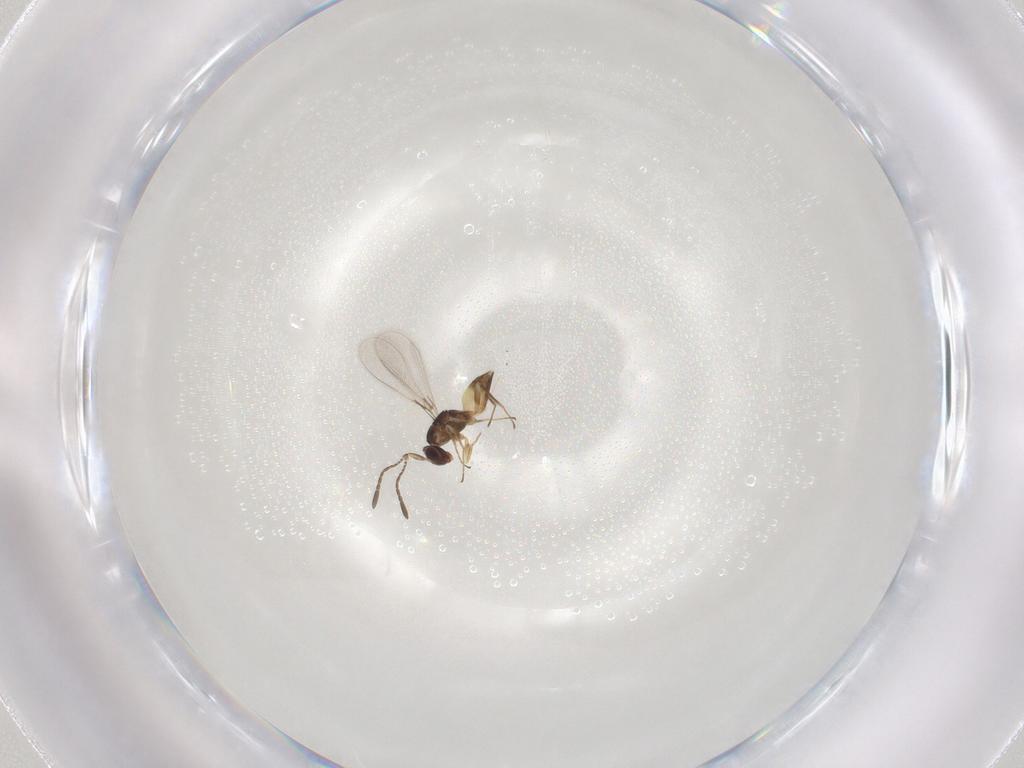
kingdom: Animalia
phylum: Arthropoda
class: Insecta
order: Hymenoptera
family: Mymaridae
